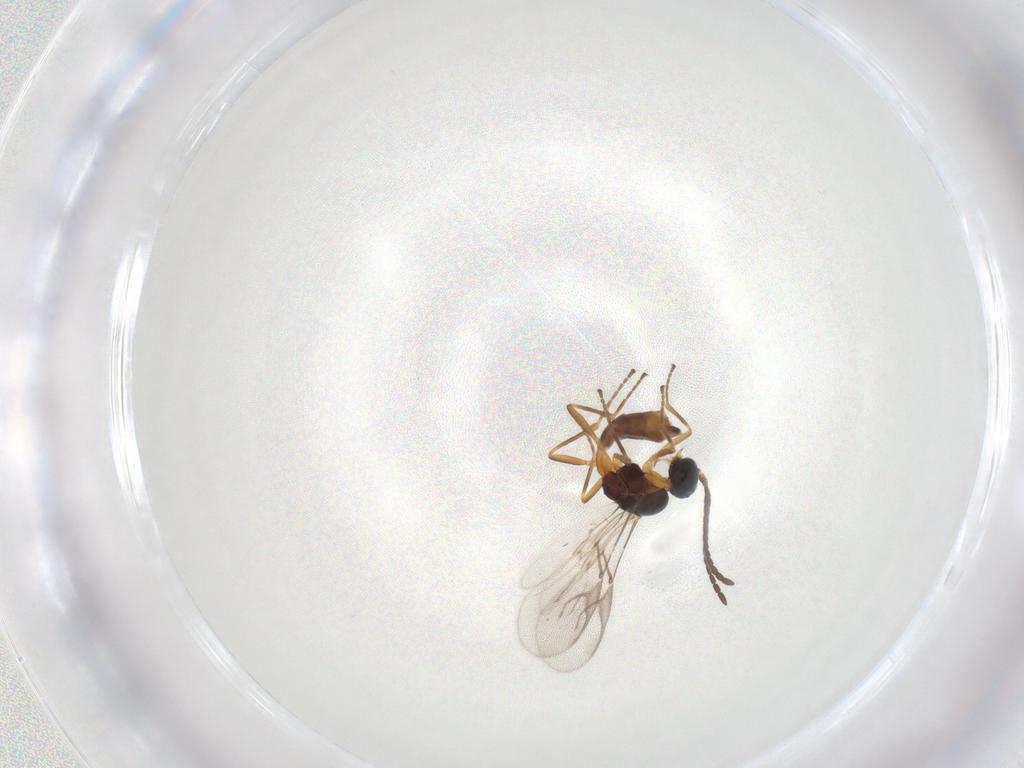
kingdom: Animalia
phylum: Arthropoda
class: Insecta
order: Hymenoptera
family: Braconidae
